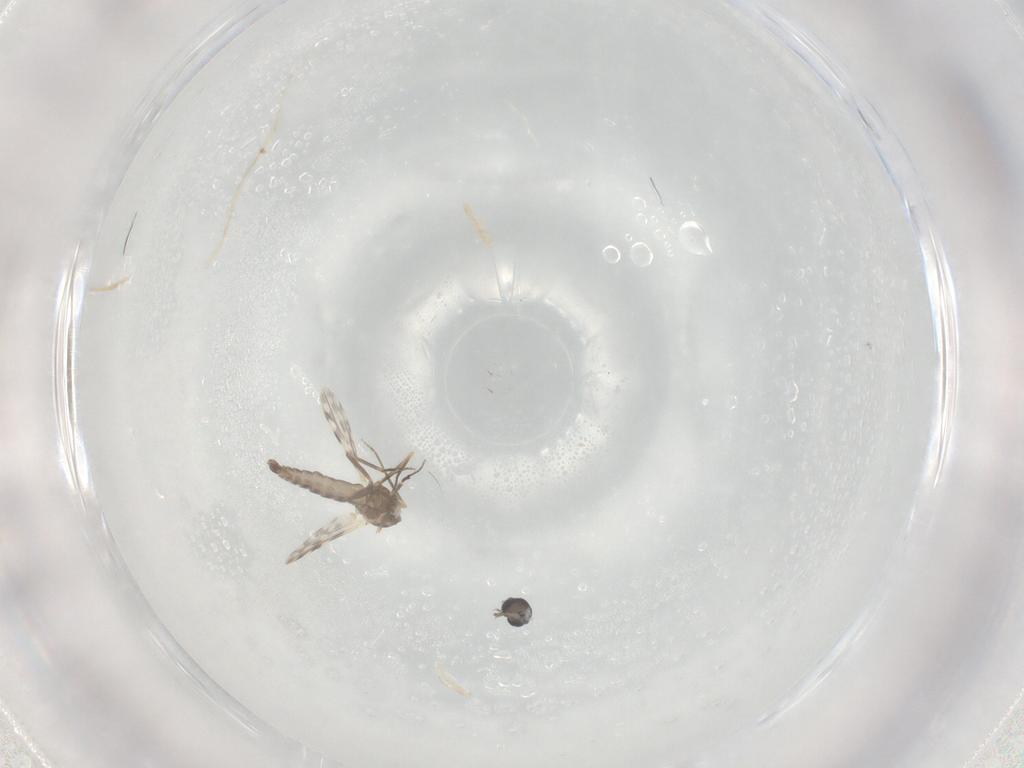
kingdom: Animalia
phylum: Arthropoda
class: Insecta
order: Diptera
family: Ceratopogonidae
